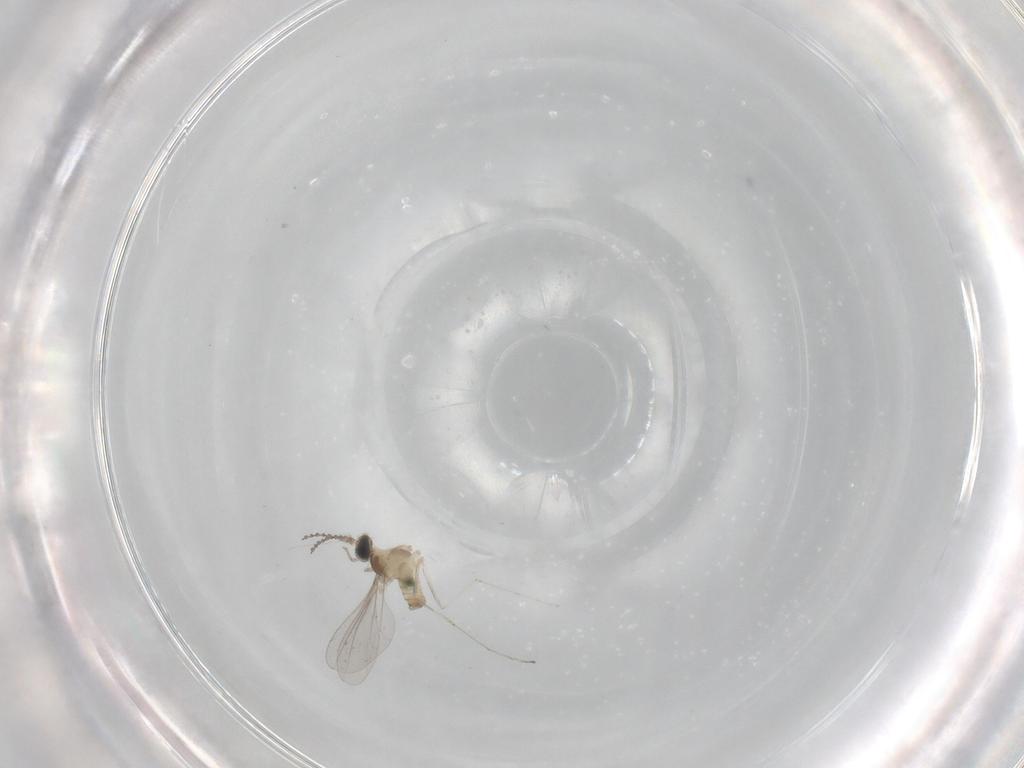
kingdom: Animalia
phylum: Arthropoda
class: Insecta
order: Diptera
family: Cecidomyiidae
